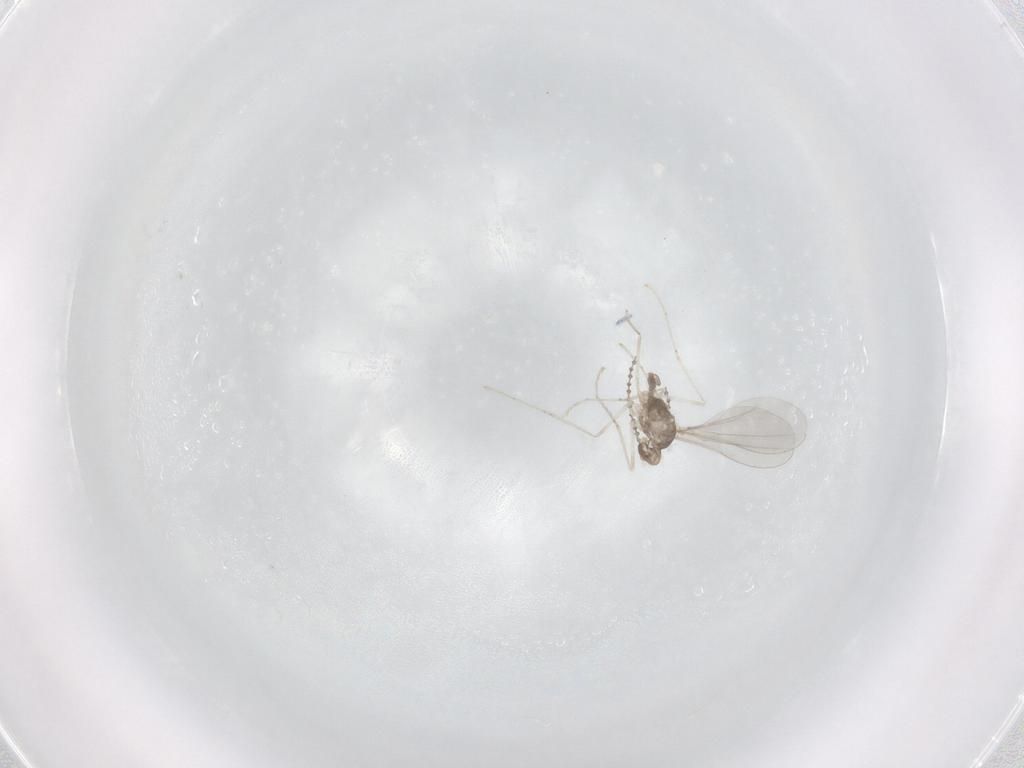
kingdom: Animalia
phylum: Arthropoda
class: Insecta
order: Diptera
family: Cecidomyiidae
